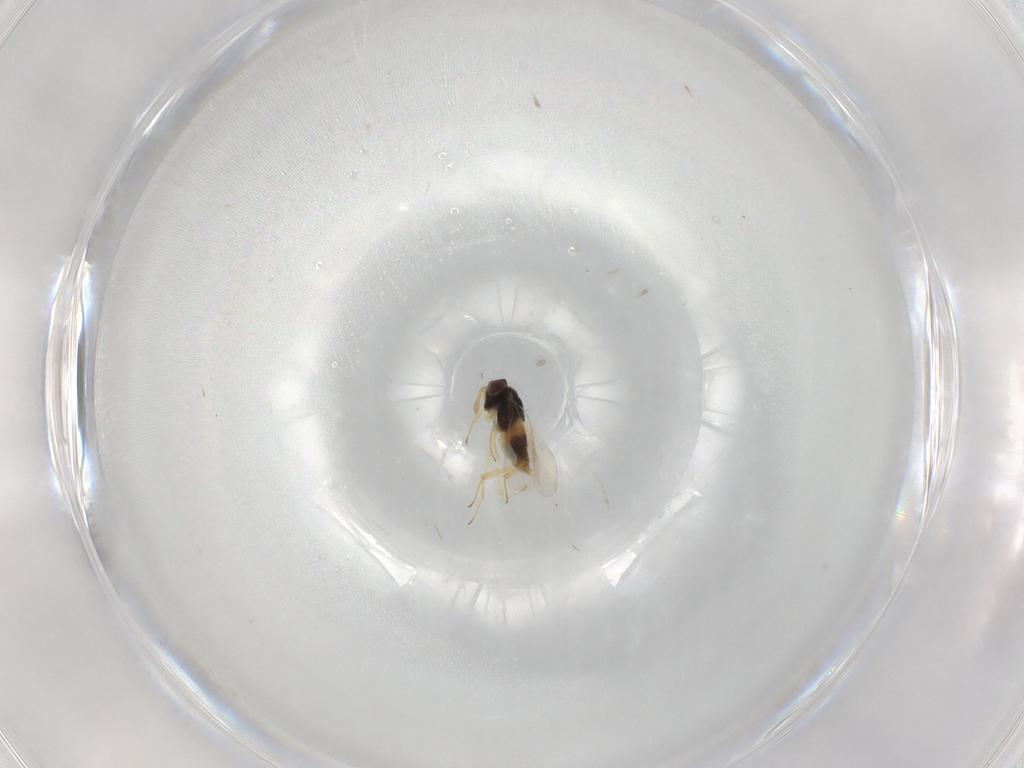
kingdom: Animalia
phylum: Arthropoda
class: Insecta
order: Hymenoptera
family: Aphelinidae
